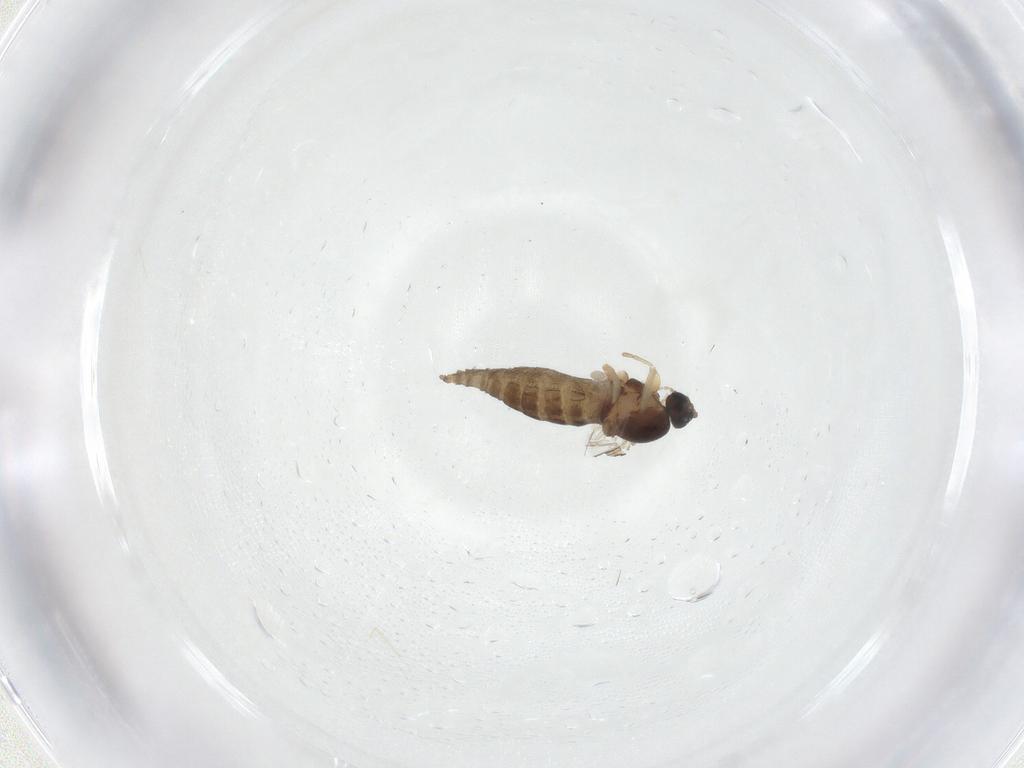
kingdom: Animalia
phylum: Arthropoda
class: Insecta
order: Diptera
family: Cecidomyiidae
